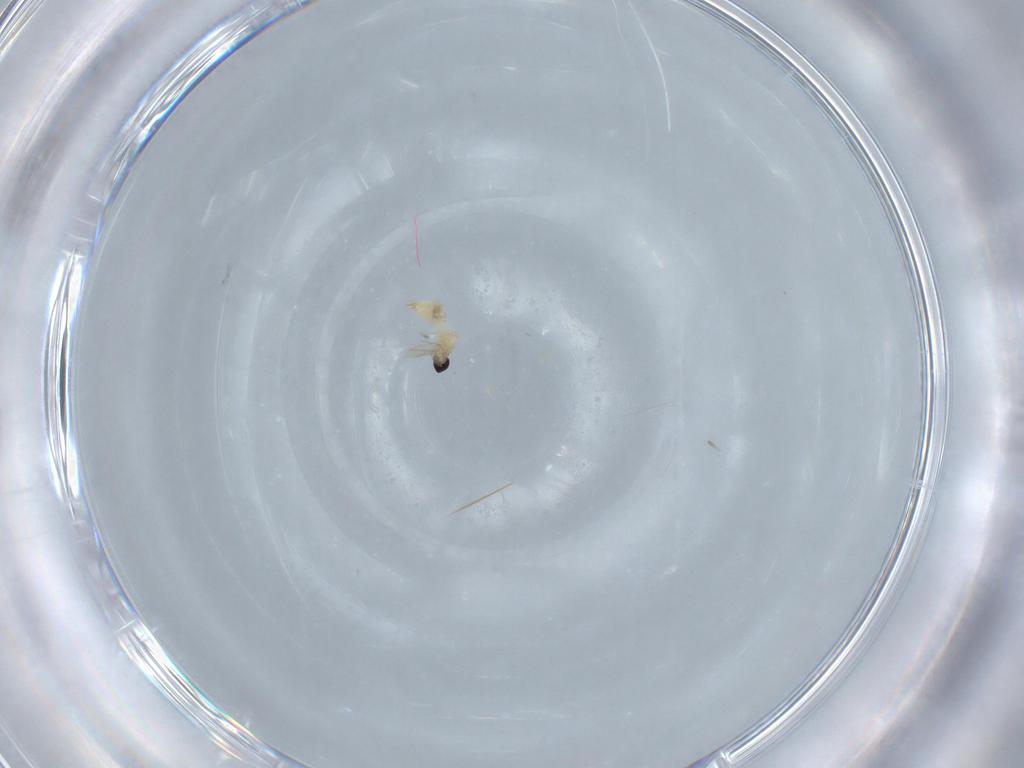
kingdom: Animalia
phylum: Arthropoda
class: Insecta
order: Diptera
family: Cecidomyiidae
